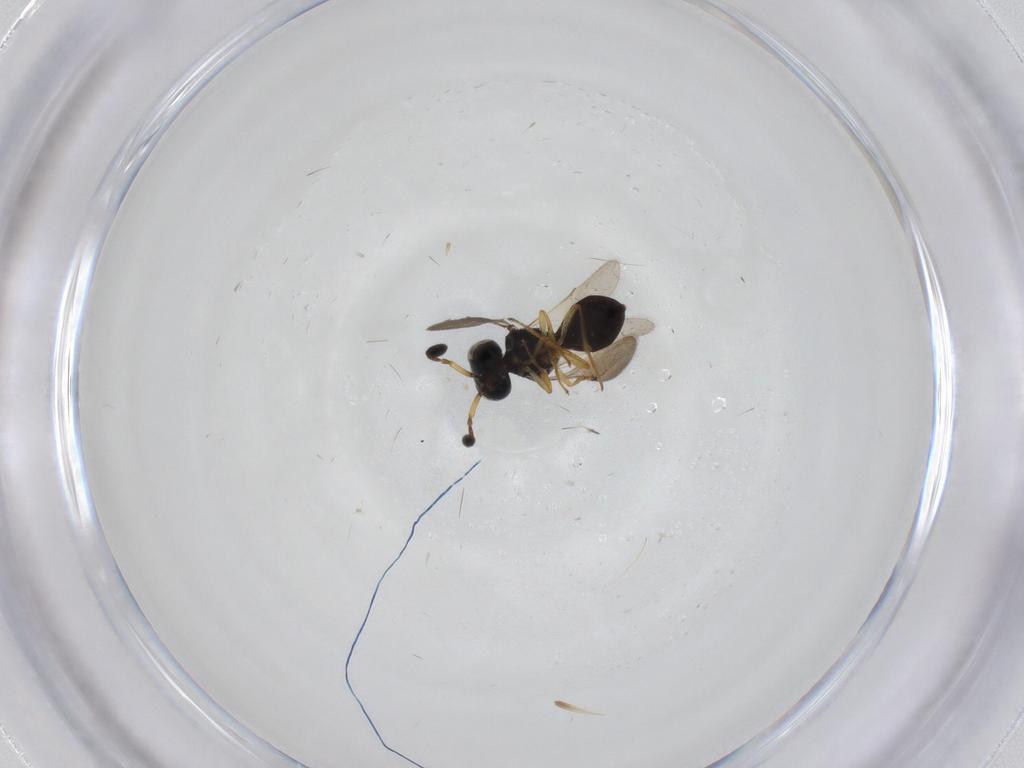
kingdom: Animalia
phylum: Arthropoda
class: Insecta
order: Hymenoptera
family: Scelionidae
